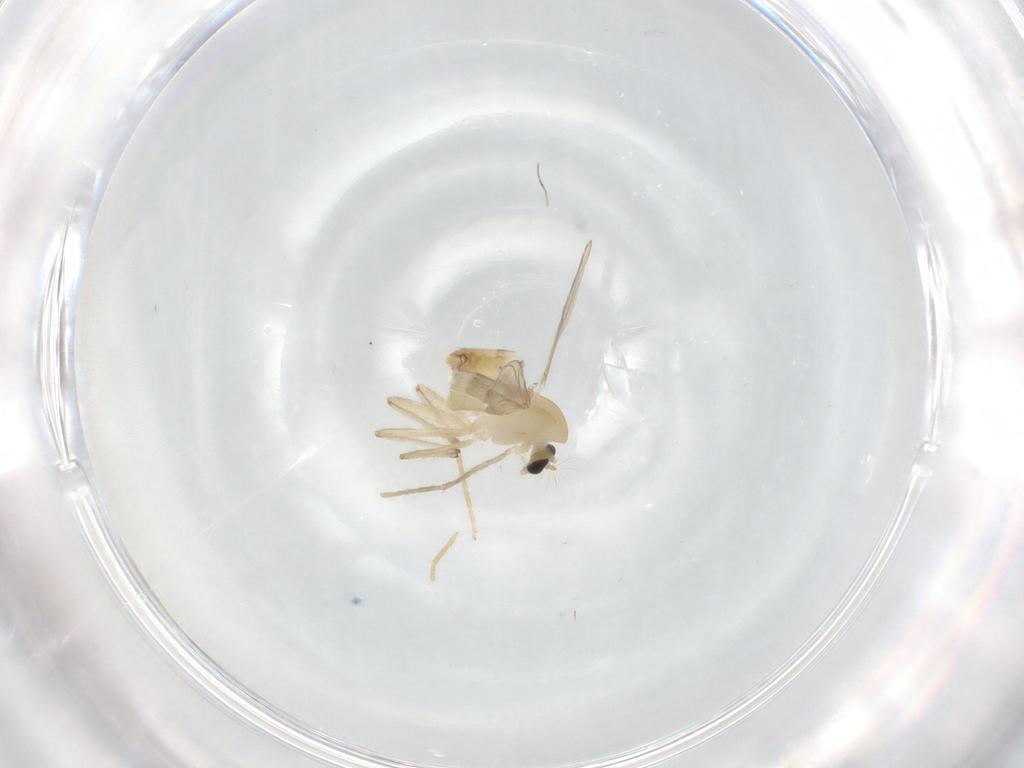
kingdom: Animalia
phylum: Arthropoda
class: Insecta
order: Diptera
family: Chironomidae
